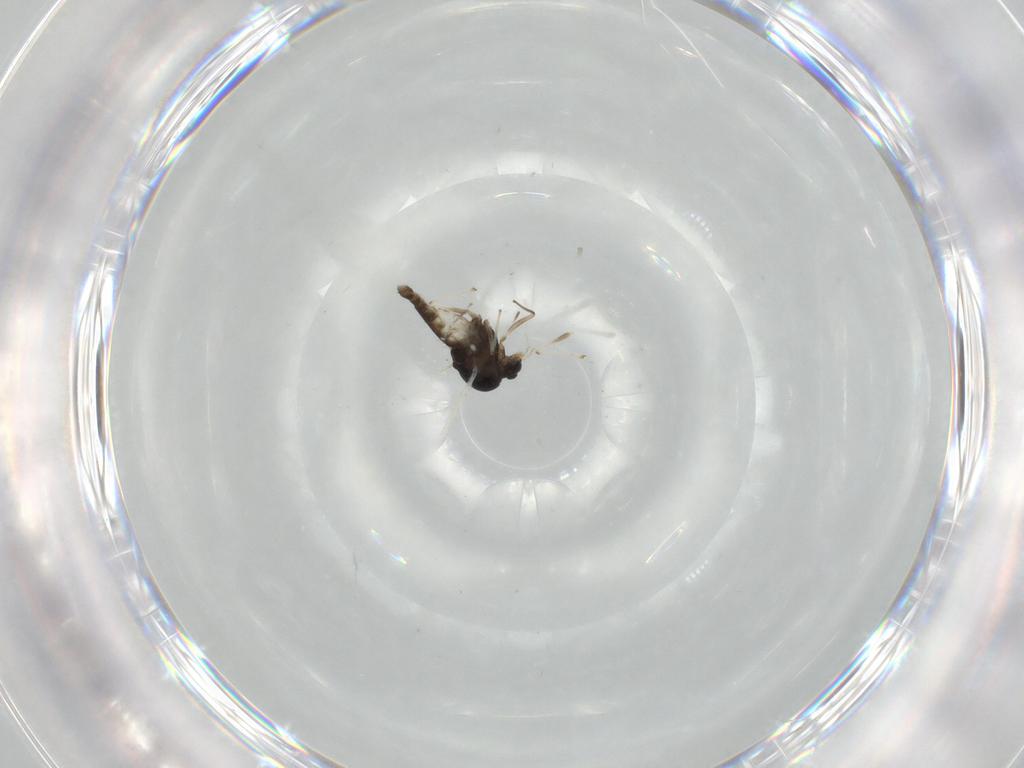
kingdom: Animalia
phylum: Arthropoda
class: Insecta
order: Diptera
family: Chironomidae
